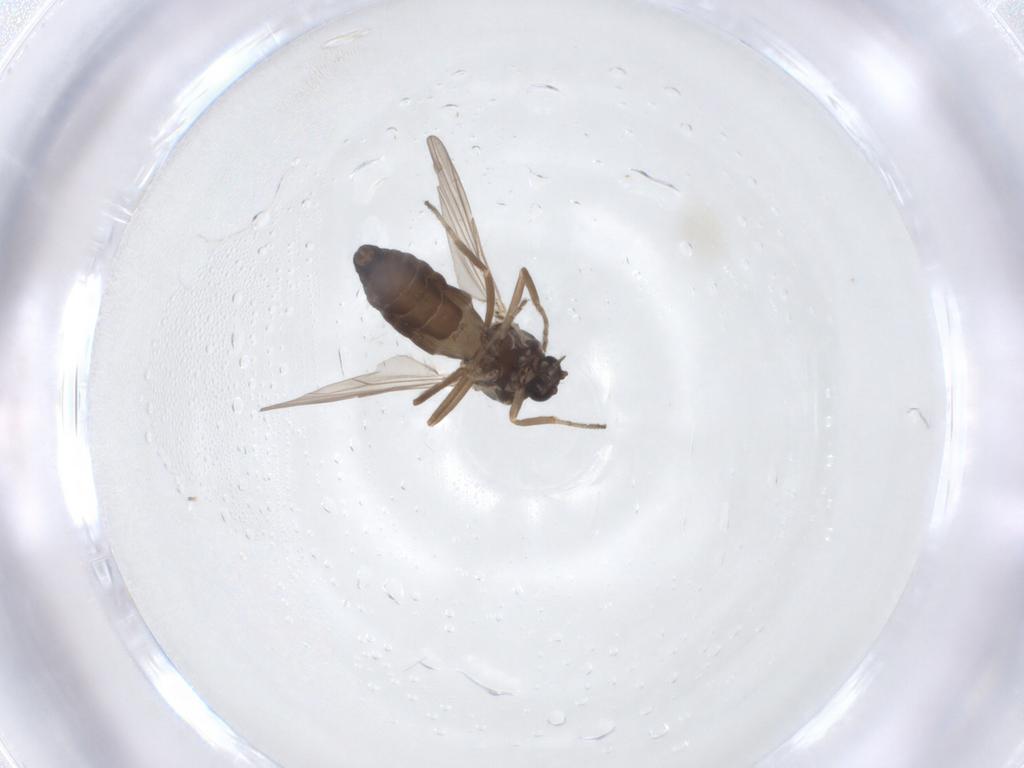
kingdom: Animalia
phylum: Arthropoda
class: Insecta
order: Diptera
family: Ceratopogonidae
